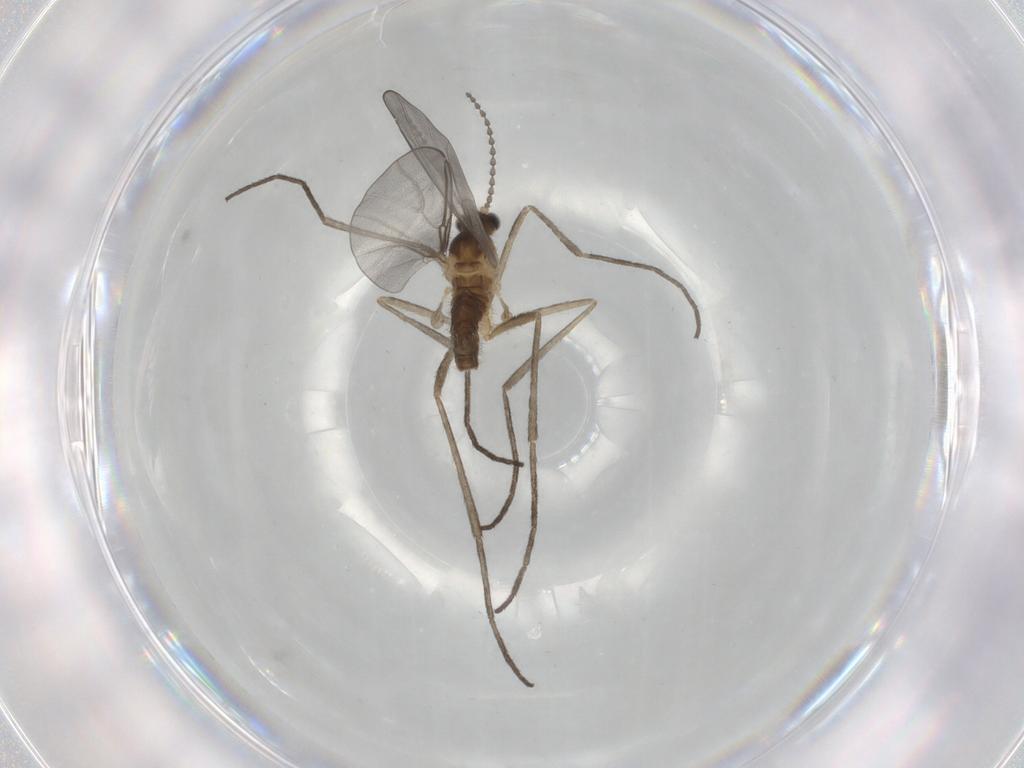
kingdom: Animalia
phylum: Arthropoda
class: Insecta
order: Diptera
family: Cecidomyiidae
